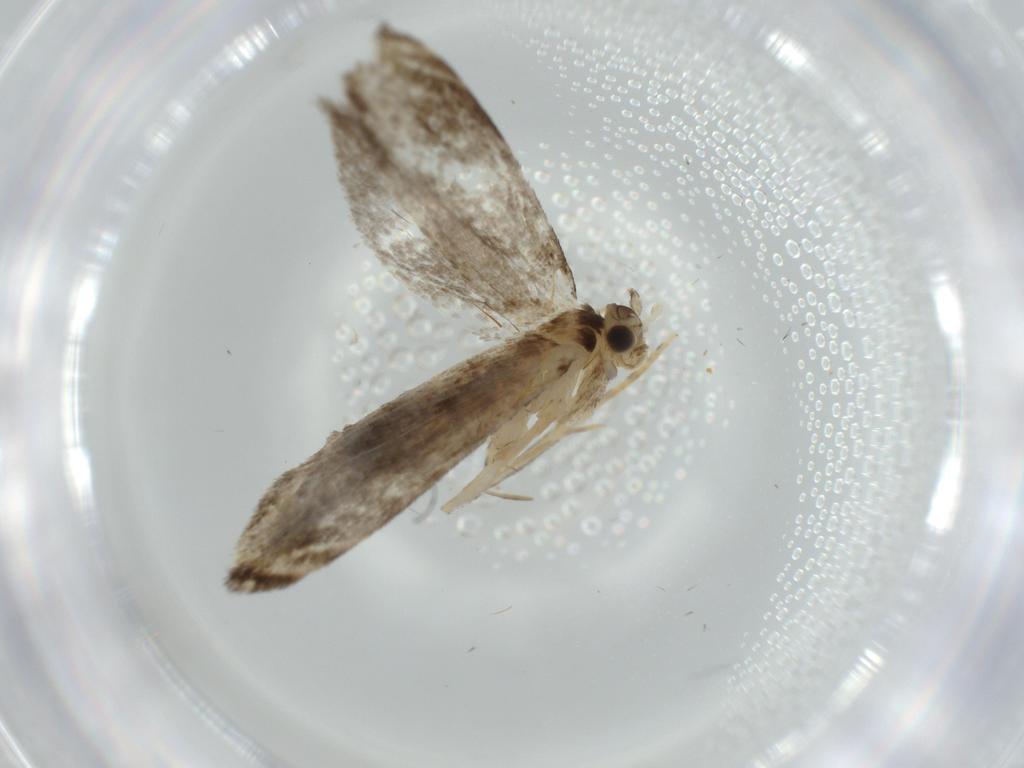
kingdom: Animalia
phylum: Arthropoda
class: Insecta
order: Lepidoptera
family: Tineidae
